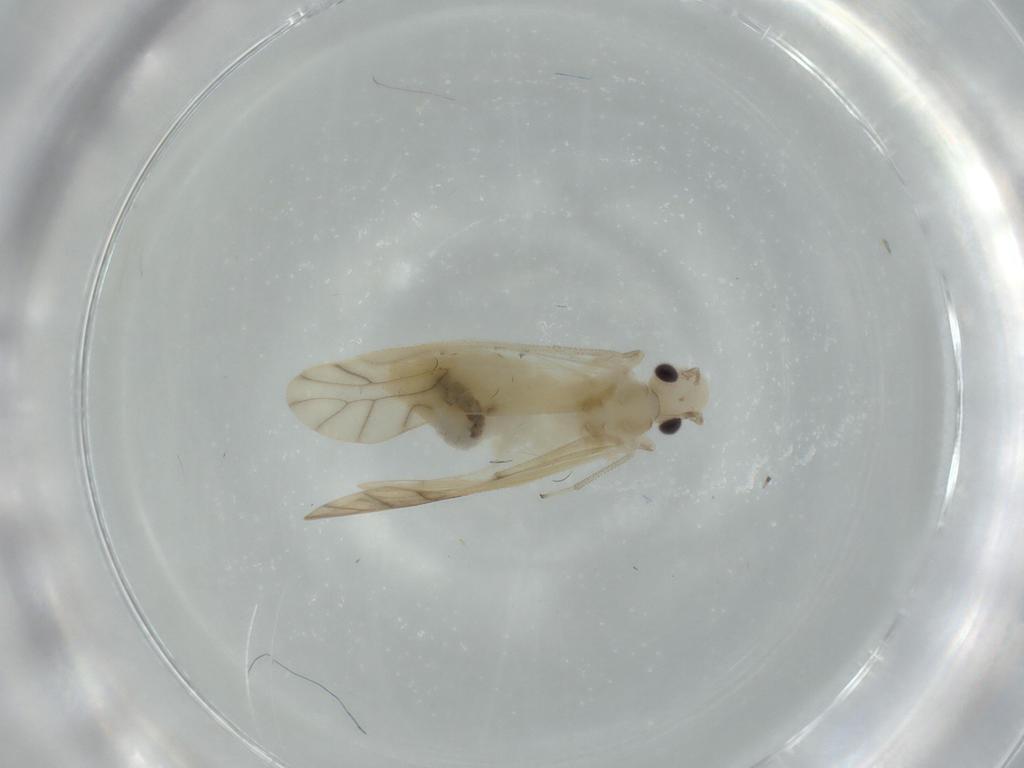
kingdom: Animalia
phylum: Arthropoda
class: Insecta
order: Psocodea
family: Caeciliusidae
